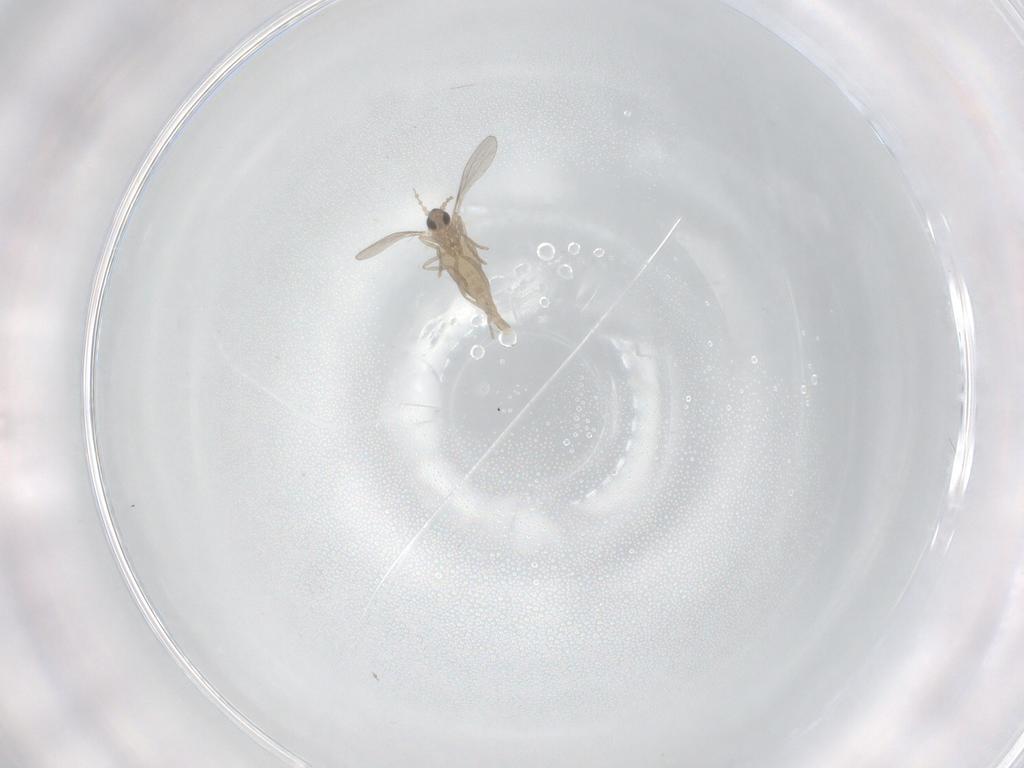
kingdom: Animalia
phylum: Arthropoda
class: Insecta
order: Diptera
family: Cecidomyiidae
